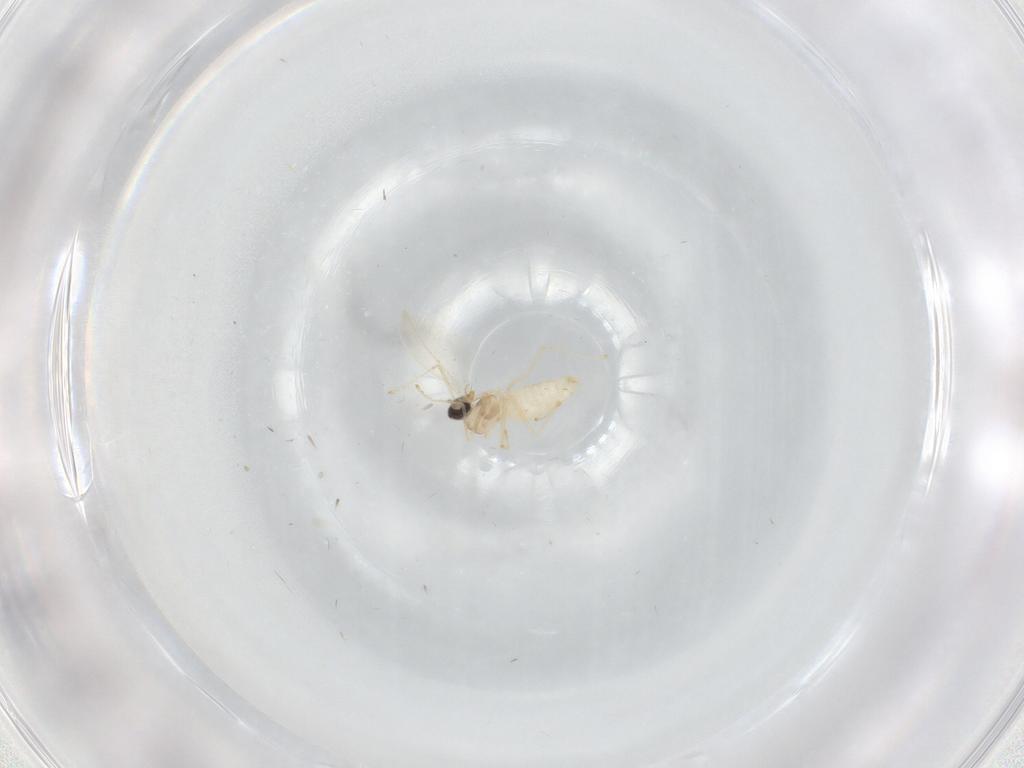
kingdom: Animalia
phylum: Arthropoda
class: Insecta
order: Diptera
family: Cecidomyiidae
